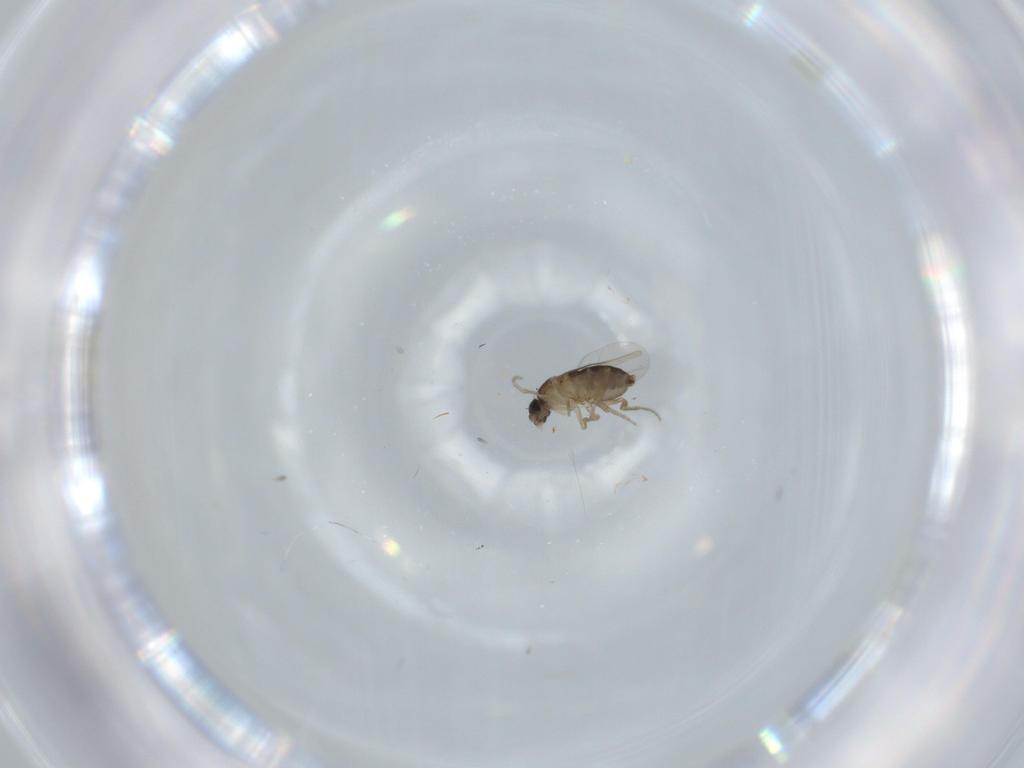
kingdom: Animalia
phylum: Arthropoda
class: Insecta
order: Diptera
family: Phoridae
